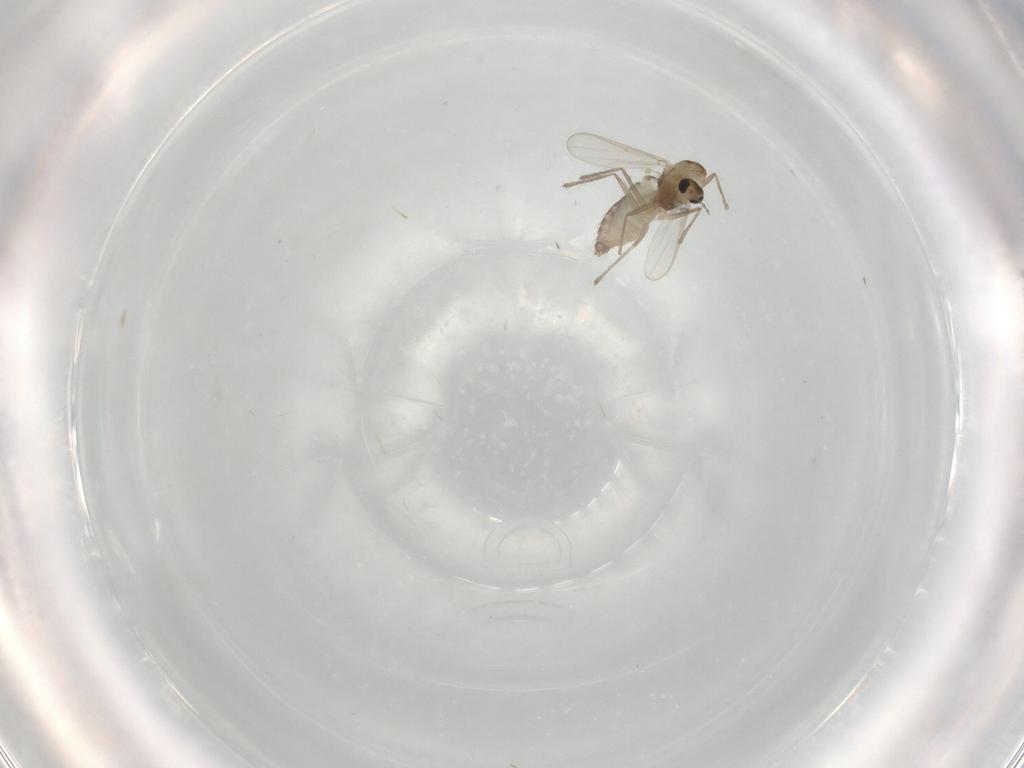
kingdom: Animalia
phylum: Arthropoda
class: Insecta
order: Diptera
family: Chironomidae
